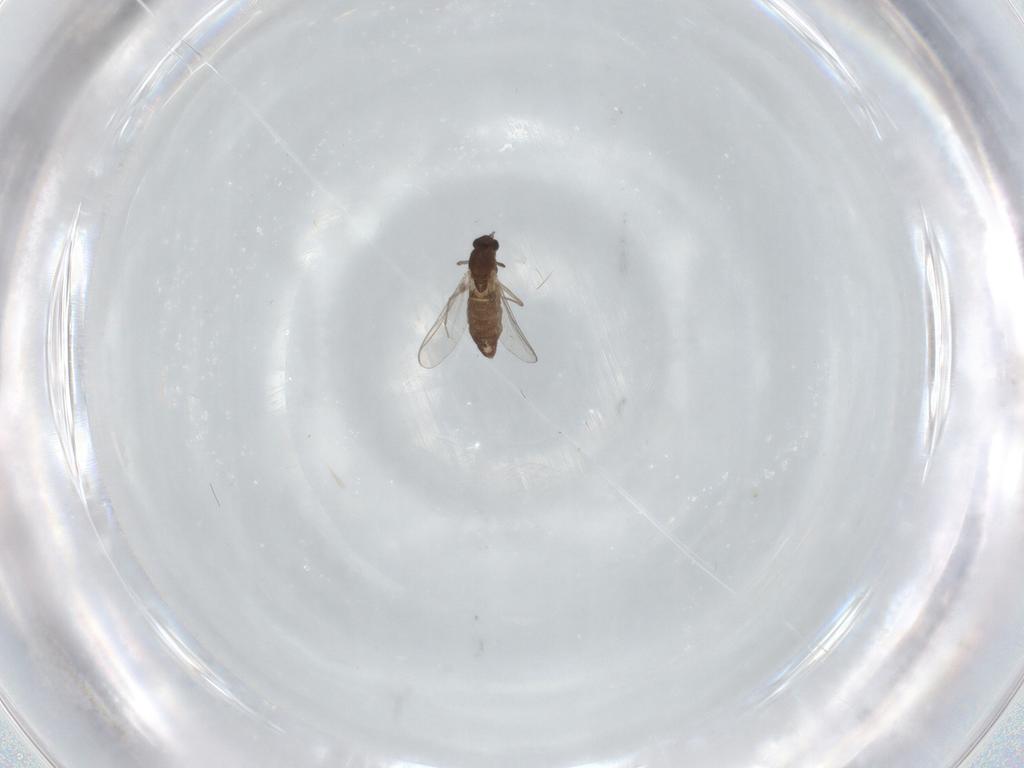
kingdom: Animalia
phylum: Arthropoda
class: Insecta
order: Diptera
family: Chironomidae
